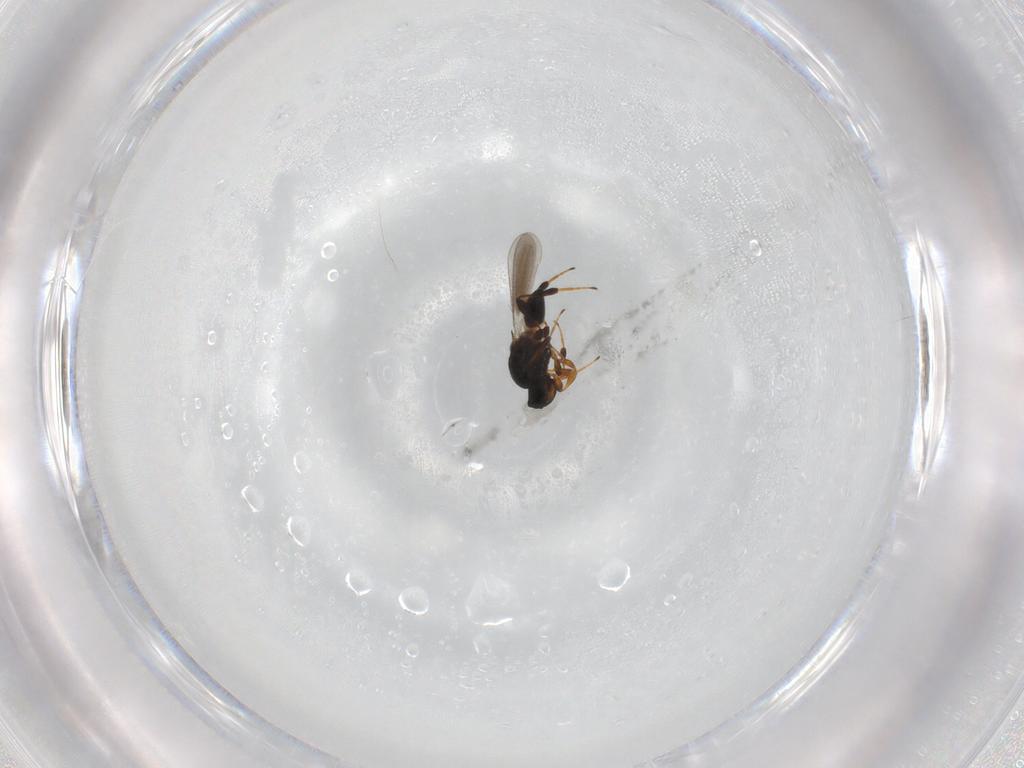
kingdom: Animalia
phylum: Arthropoda
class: Insecta
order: Hymenoptera
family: Platygastridae
